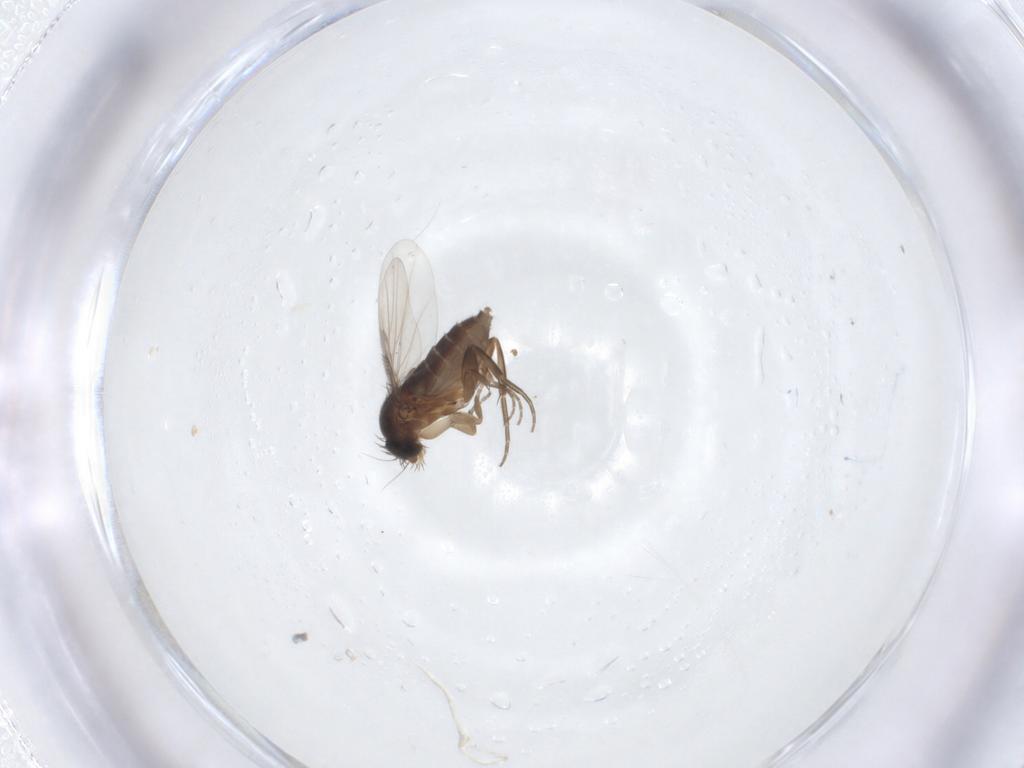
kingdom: Animalia
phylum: Arthropoda
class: Insecta
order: Diptera
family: Phoridae
